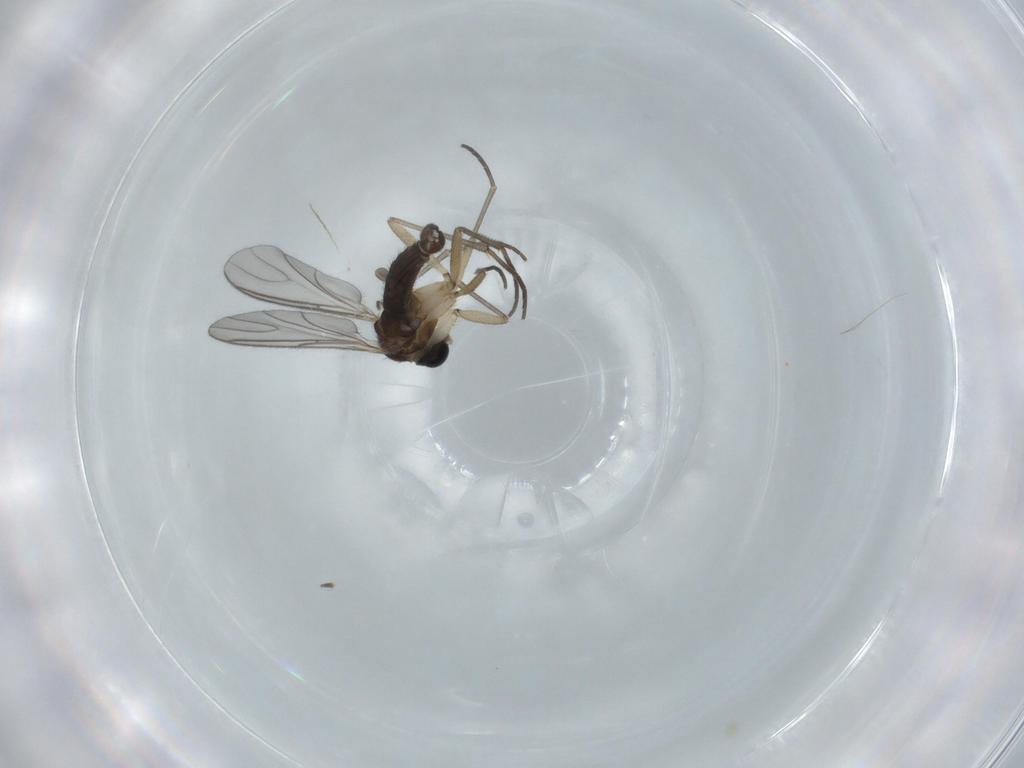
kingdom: Animalia
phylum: Arthropoda
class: Insecta
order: Diptera
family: Sciaridae
